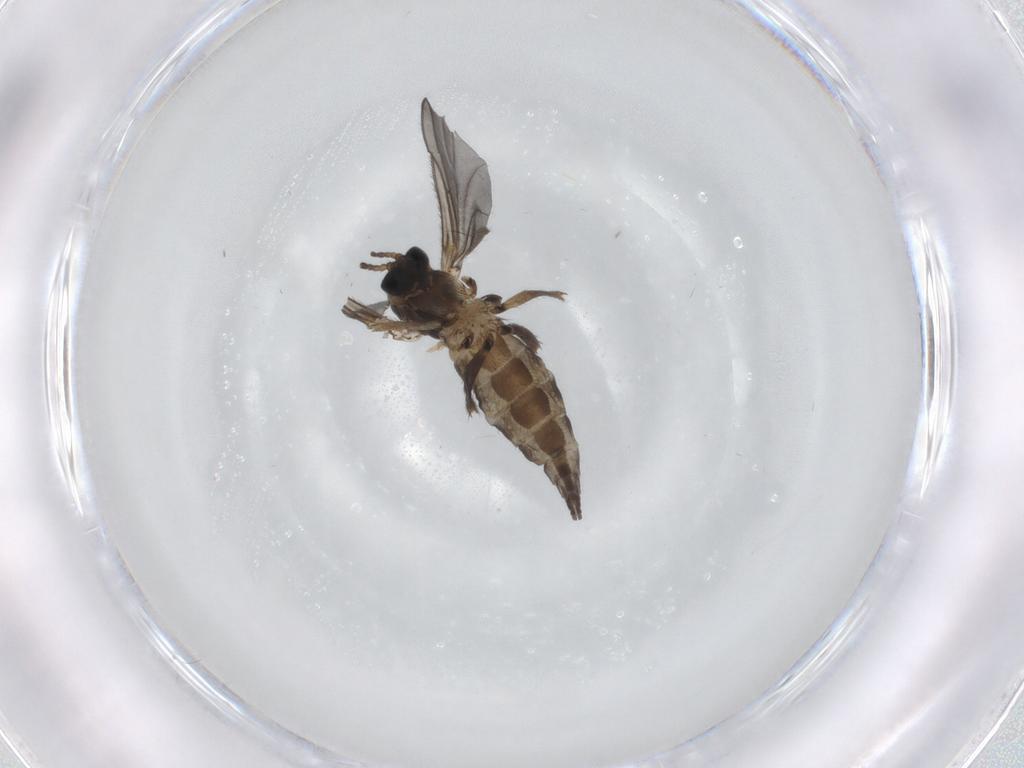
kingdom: Animalia
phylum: Arthropoda
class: Insecta
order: Diptera
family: Sciaridae
